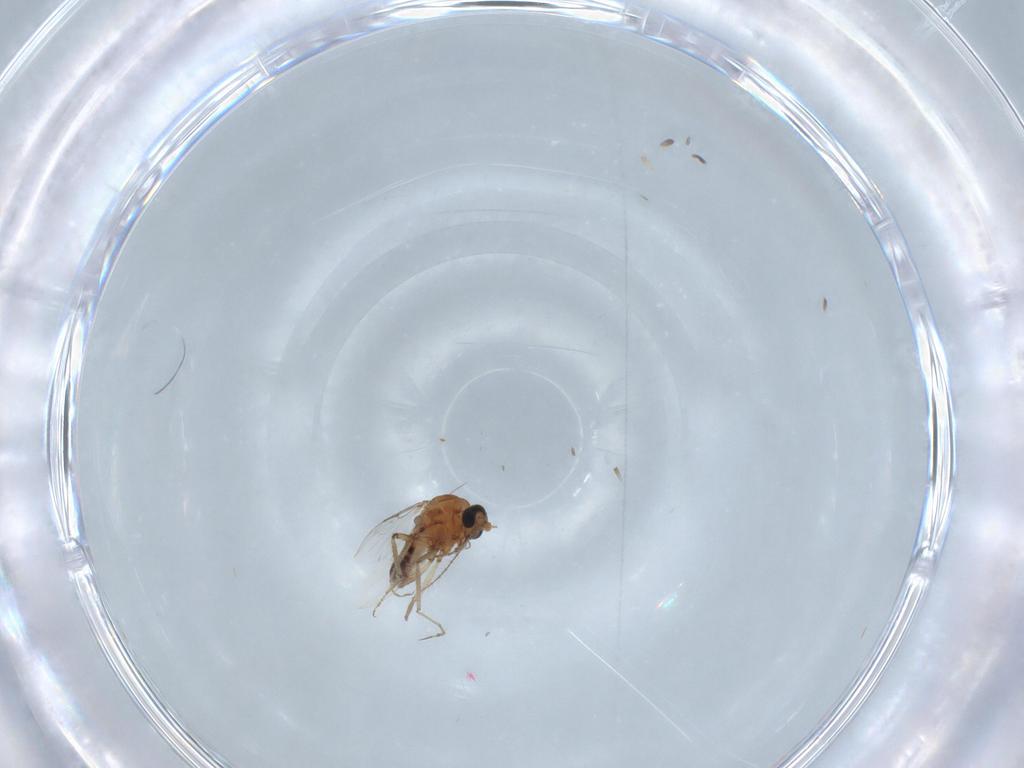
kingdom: Animalia
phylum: Arthropoda
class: Insecta
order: Diptera
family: Ceratopogonidae
